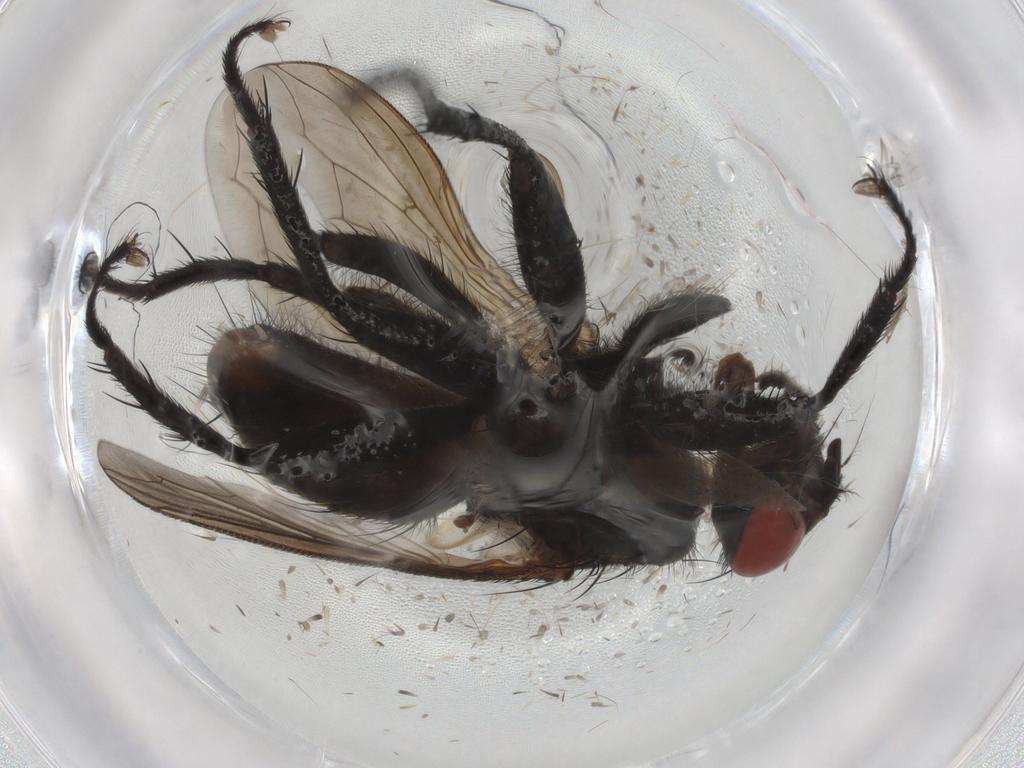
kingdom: Animalia
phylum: Arthropoda
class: Insecta
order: Diptera
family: Sarcophagidae
